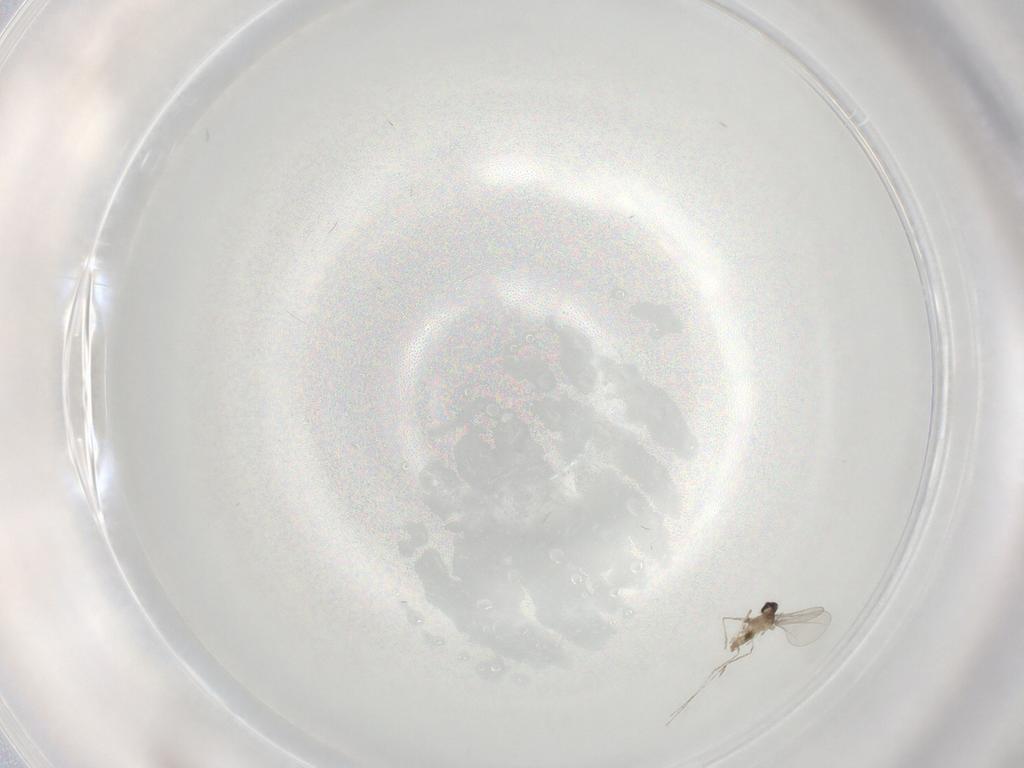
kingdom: Animalia
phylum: Arthropoda
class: Insecta
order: Diptera
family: Cecidomyiidae
